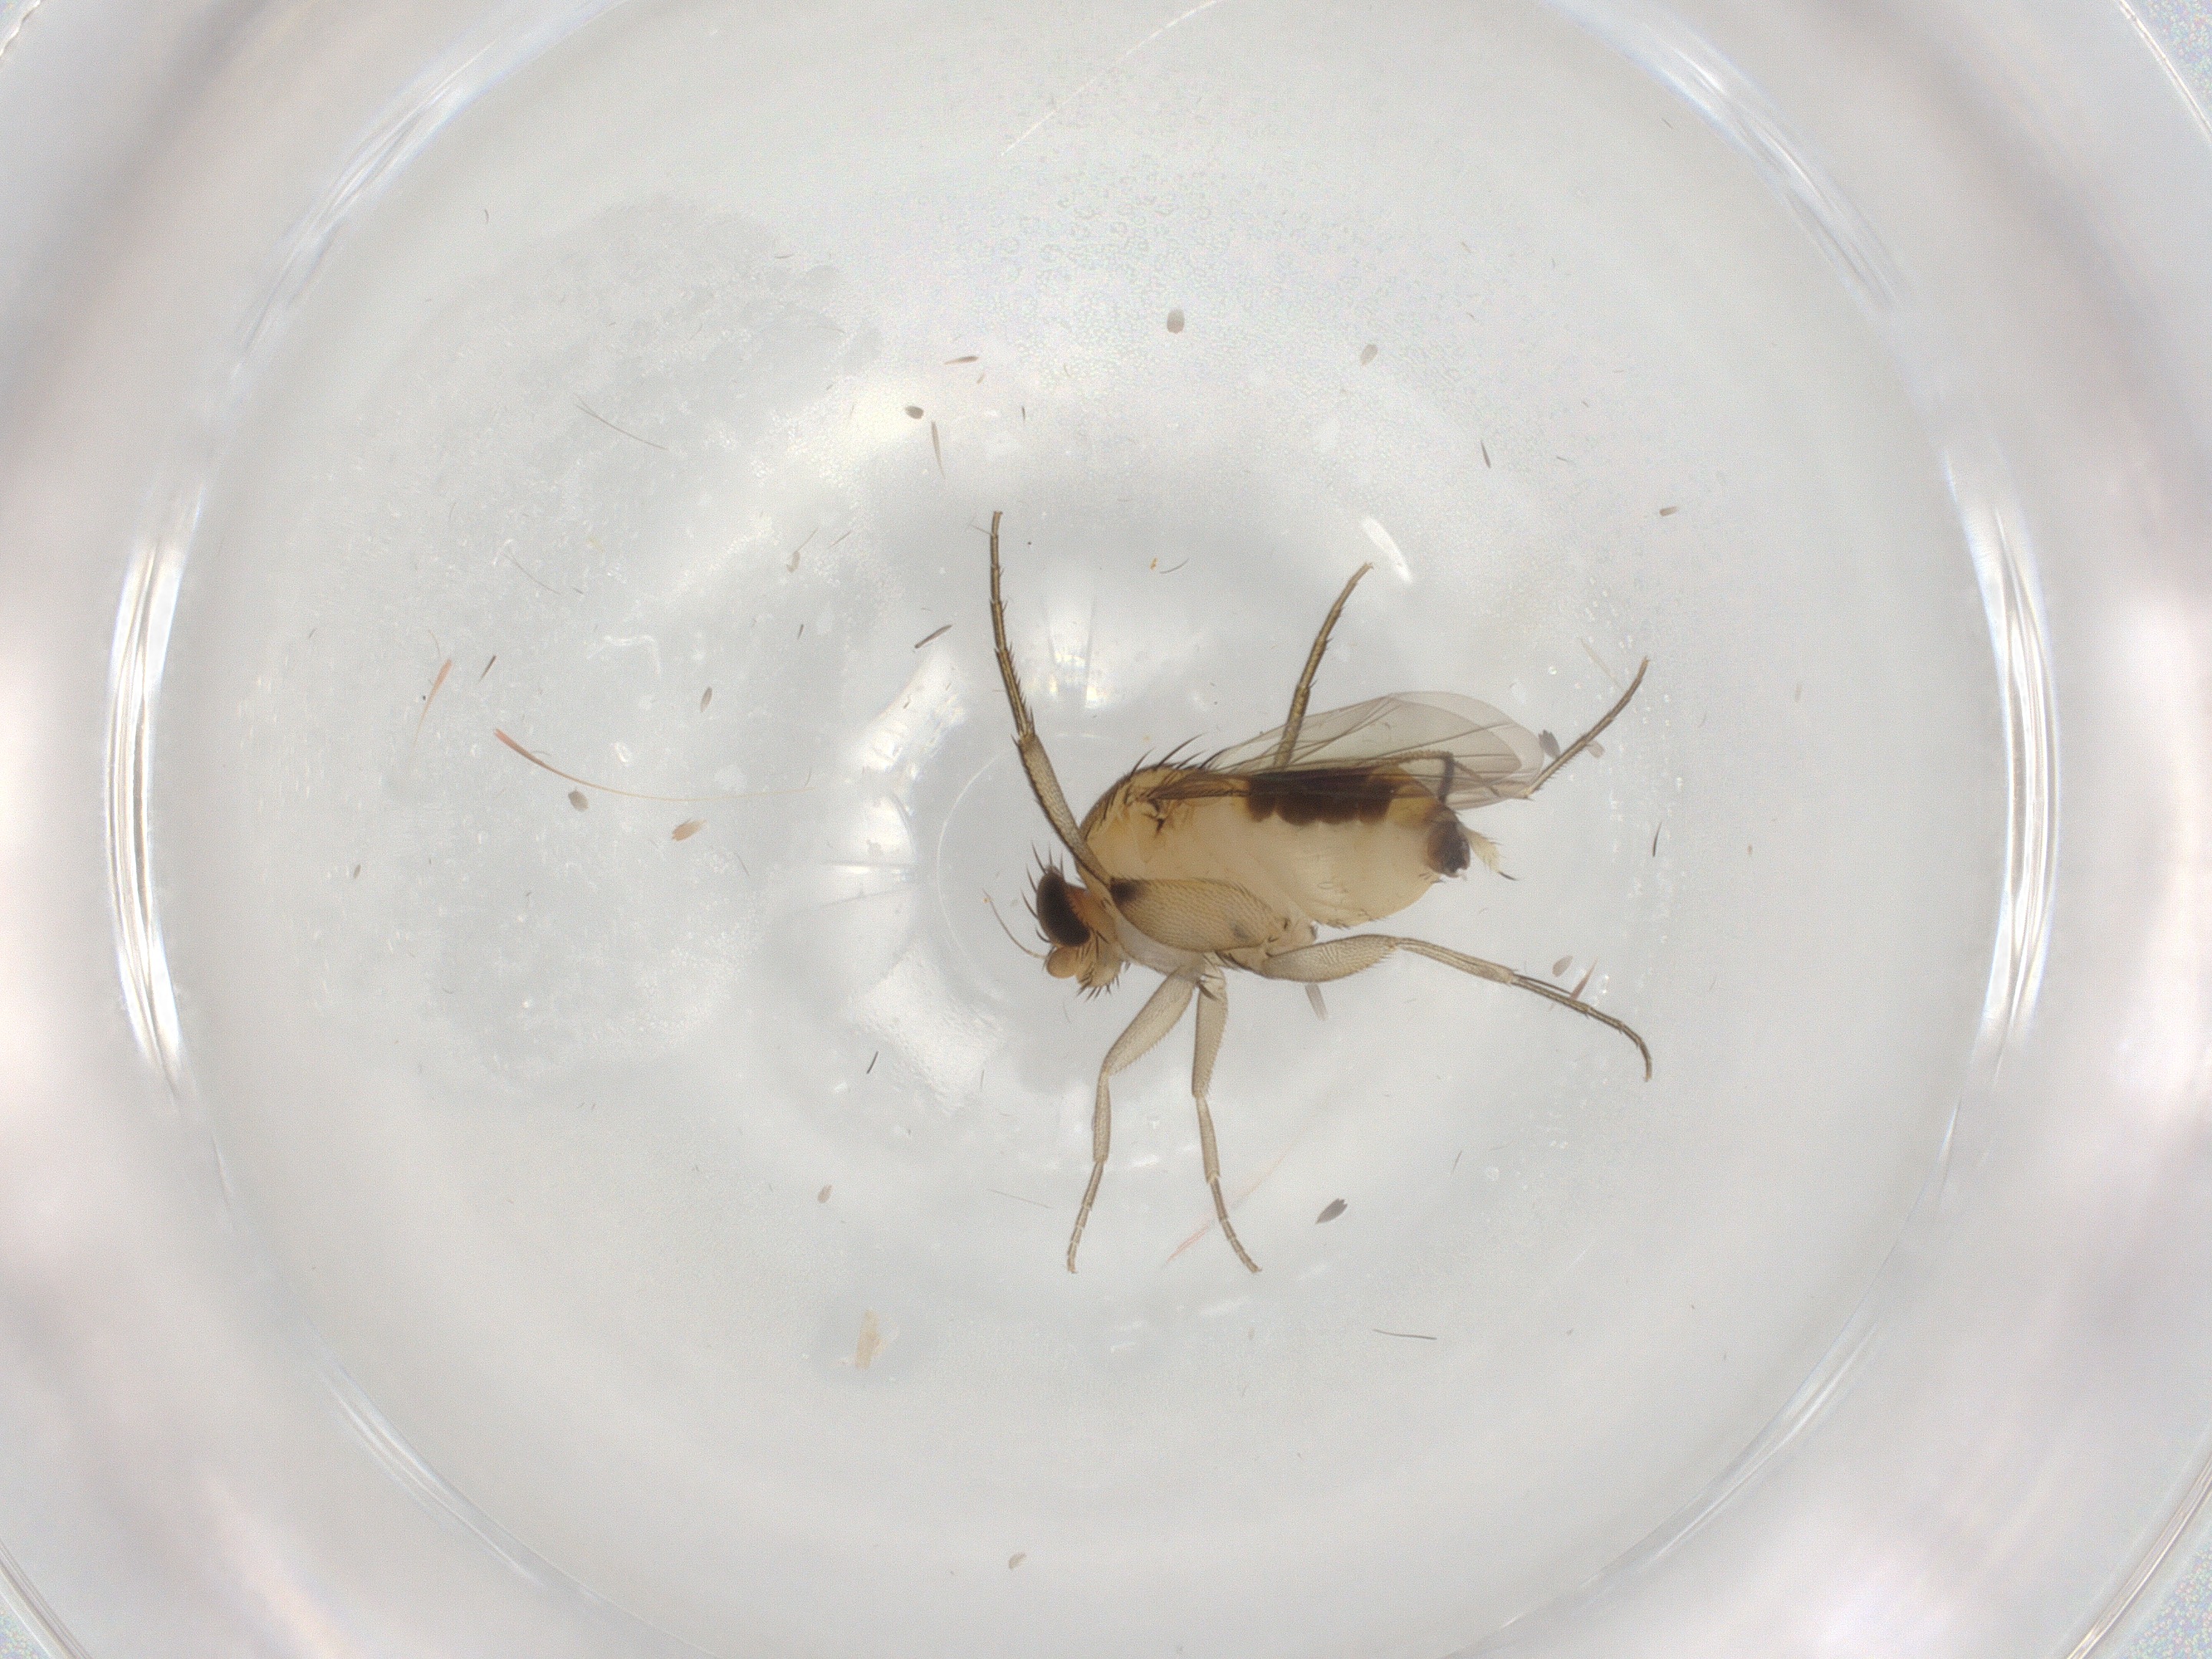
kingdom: Animalia
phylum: Arthropoda
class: Insecta
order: Diptera
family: Phoridae
